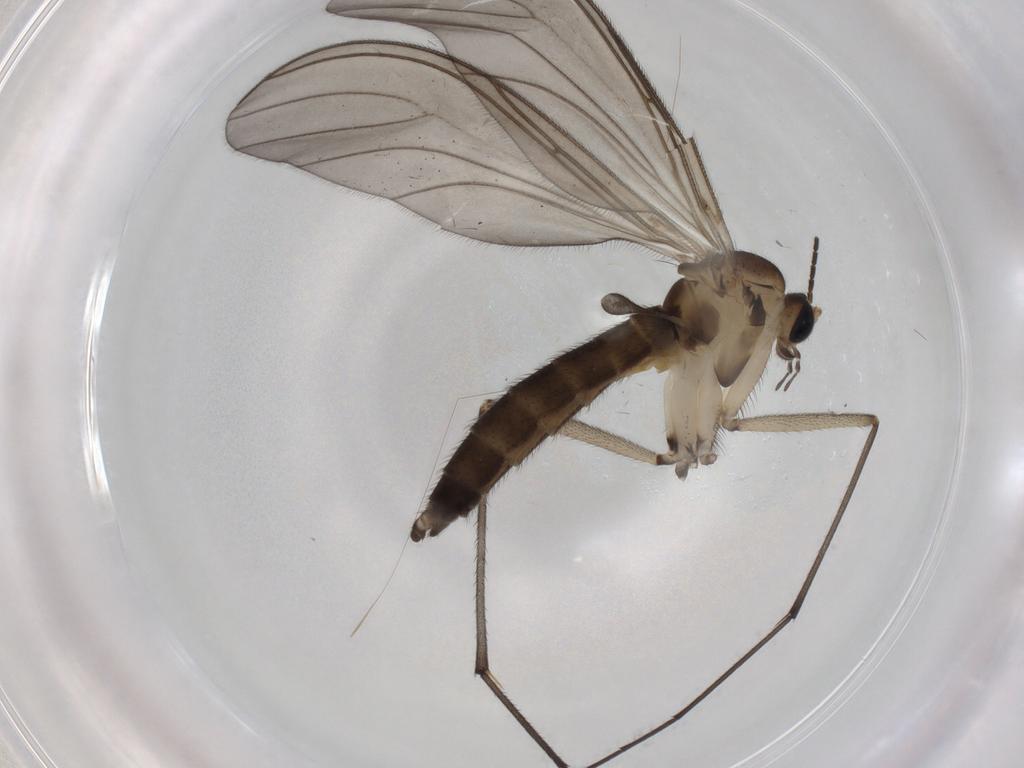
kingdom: Animalia
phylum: Arthropoda
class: Insecta
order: Diptera
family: Sciaridae
